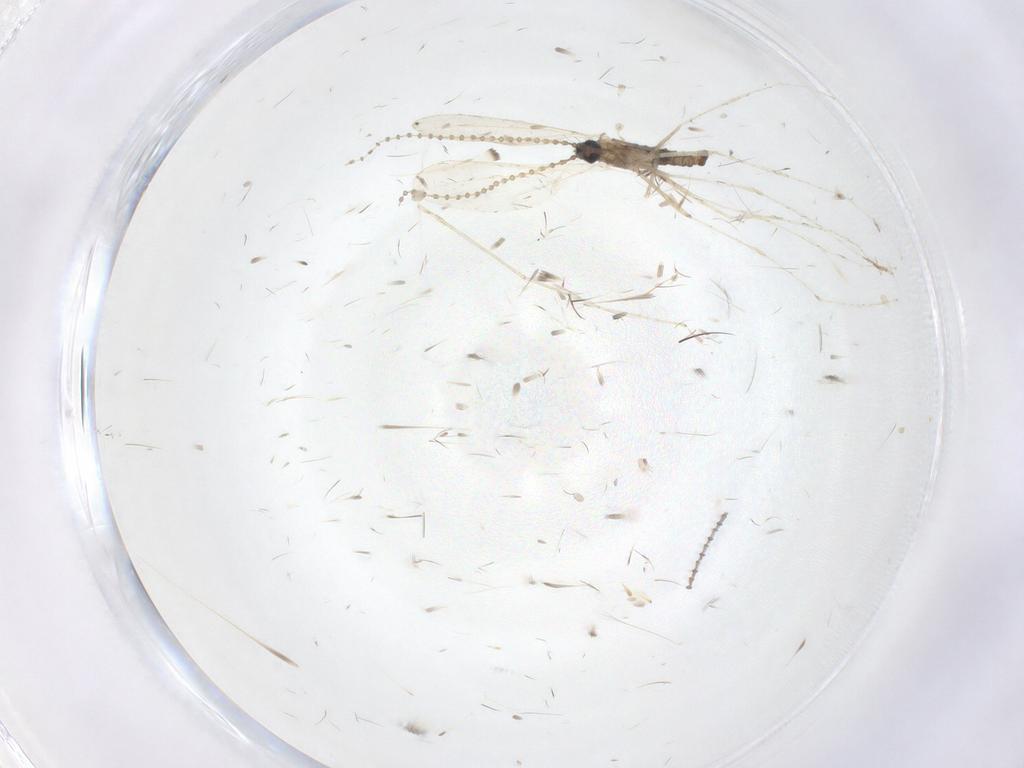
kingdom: Animalia
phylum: Arthropoda
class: Insecta
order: Diptera
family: Cecidomyiidae
